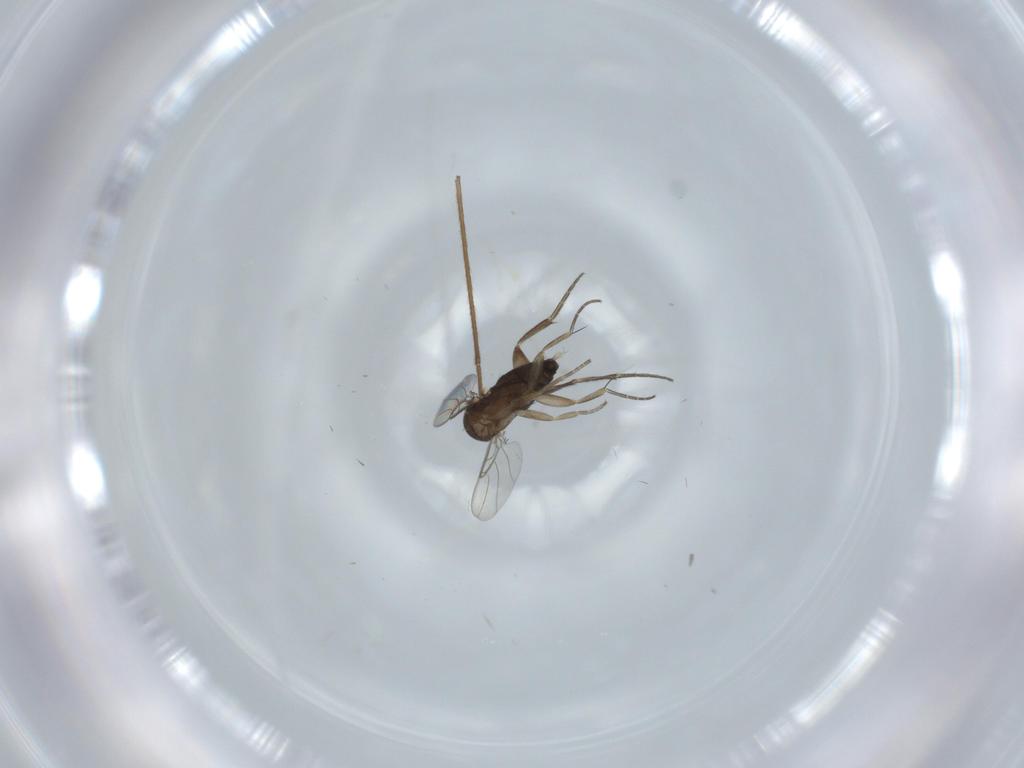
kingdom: Animalia
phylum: Arthropoda
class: Insecta
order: Diptera
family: Phoridae
